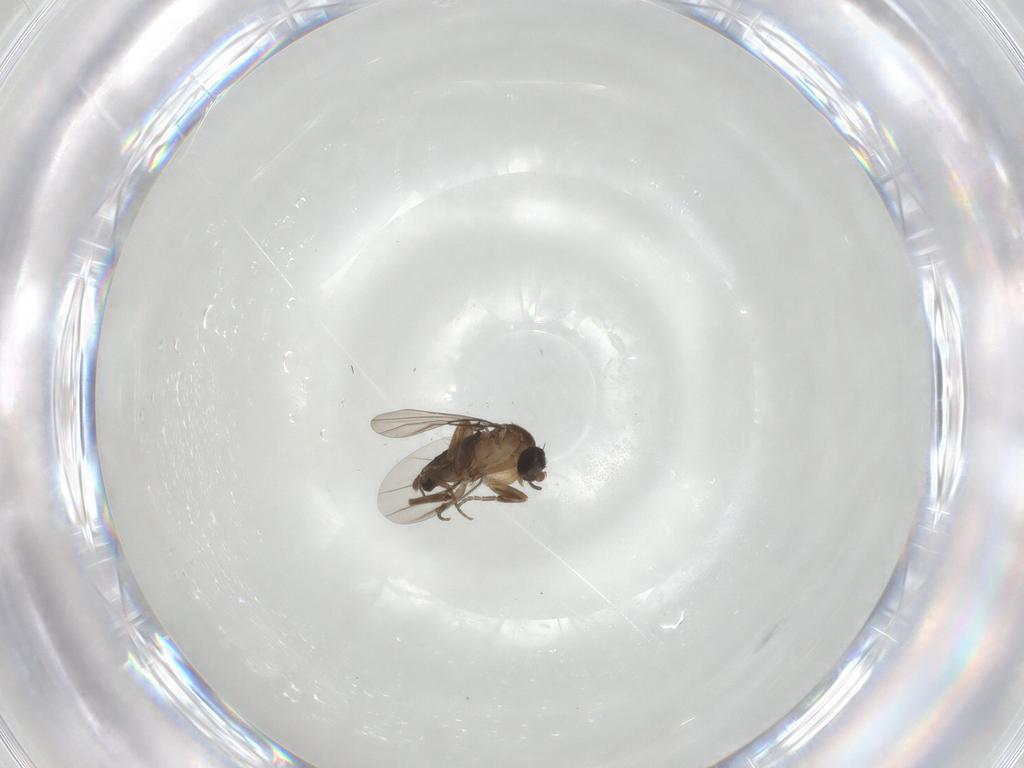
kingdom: Animalia
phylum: Arthropoda
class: Insecta
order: Diptera
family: Phoridae
